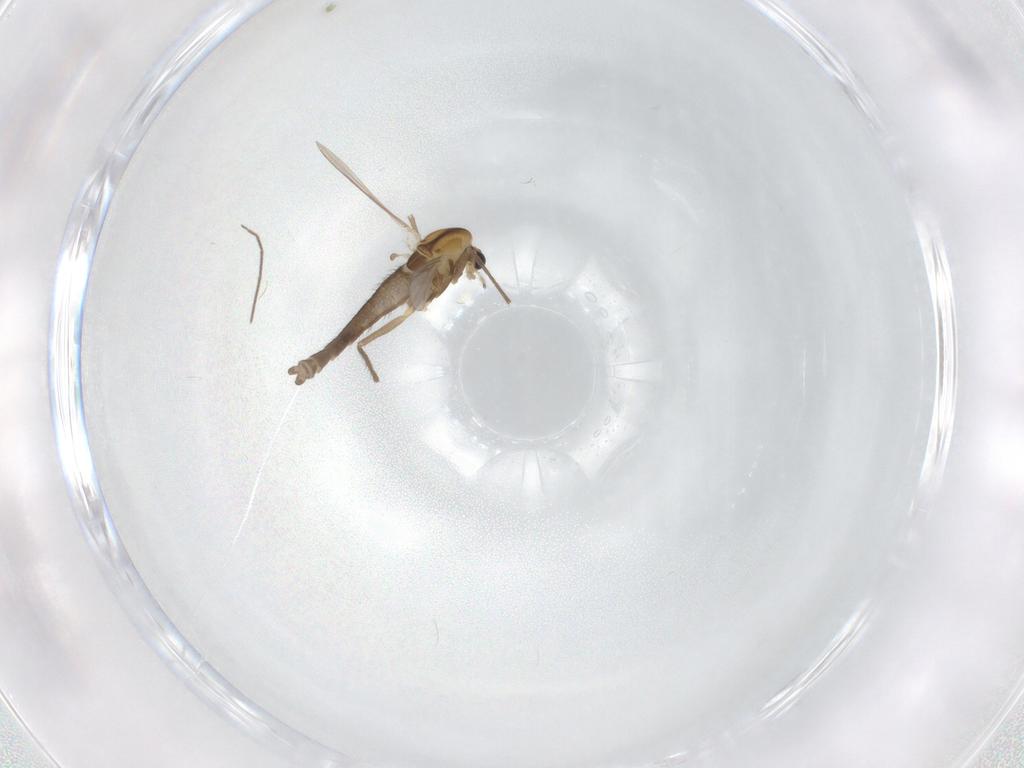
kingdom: Animalia
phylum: Arthropoda
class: Insecta
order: Diptera
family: Chironomidae
